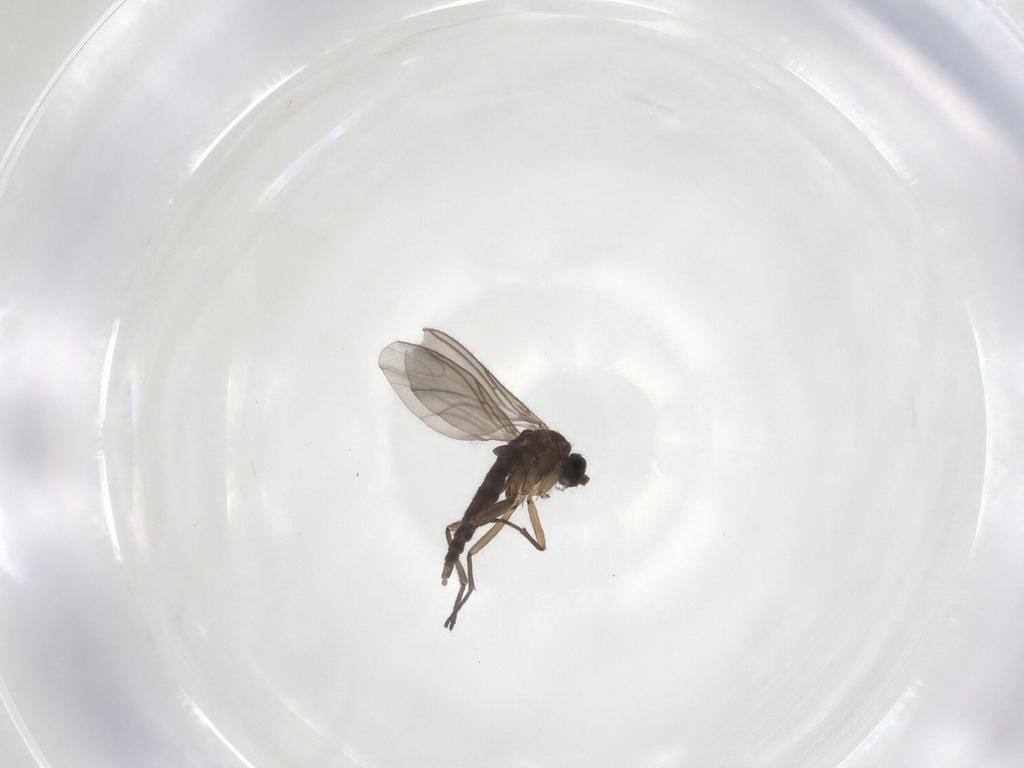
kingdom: Animalia
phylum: Arthropoda
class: Insecta
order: Diptera
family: Sciaridae
